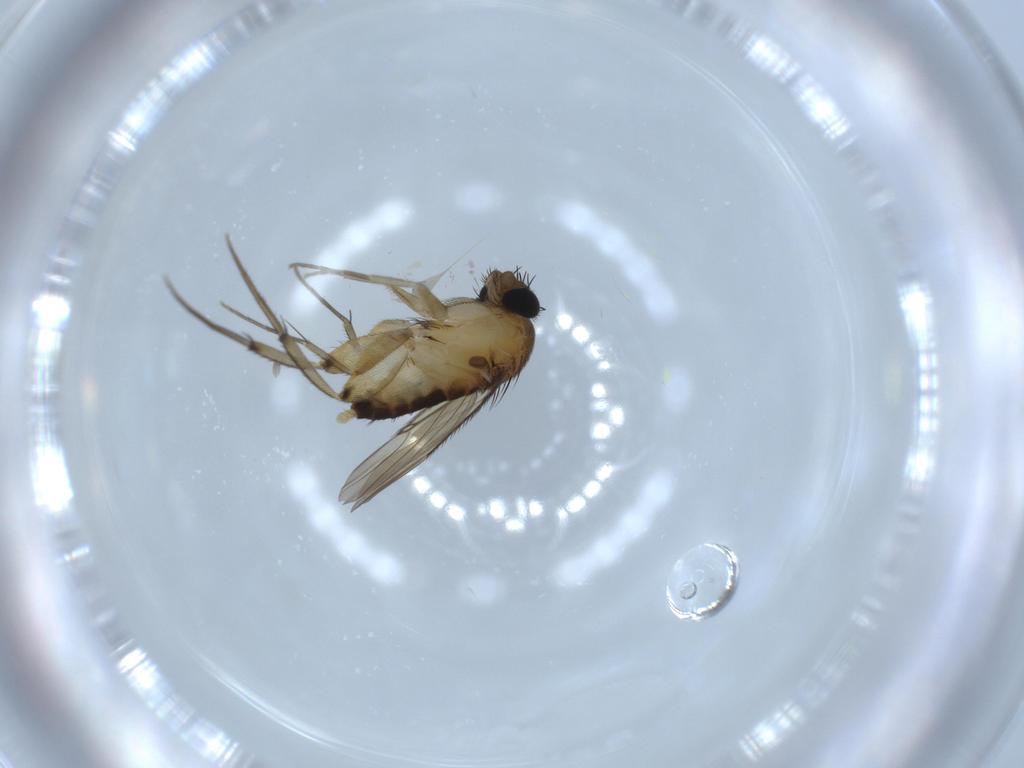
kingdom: Animalia
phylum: Arthropoda
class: Insecta
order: Diptera
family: Phoridae
